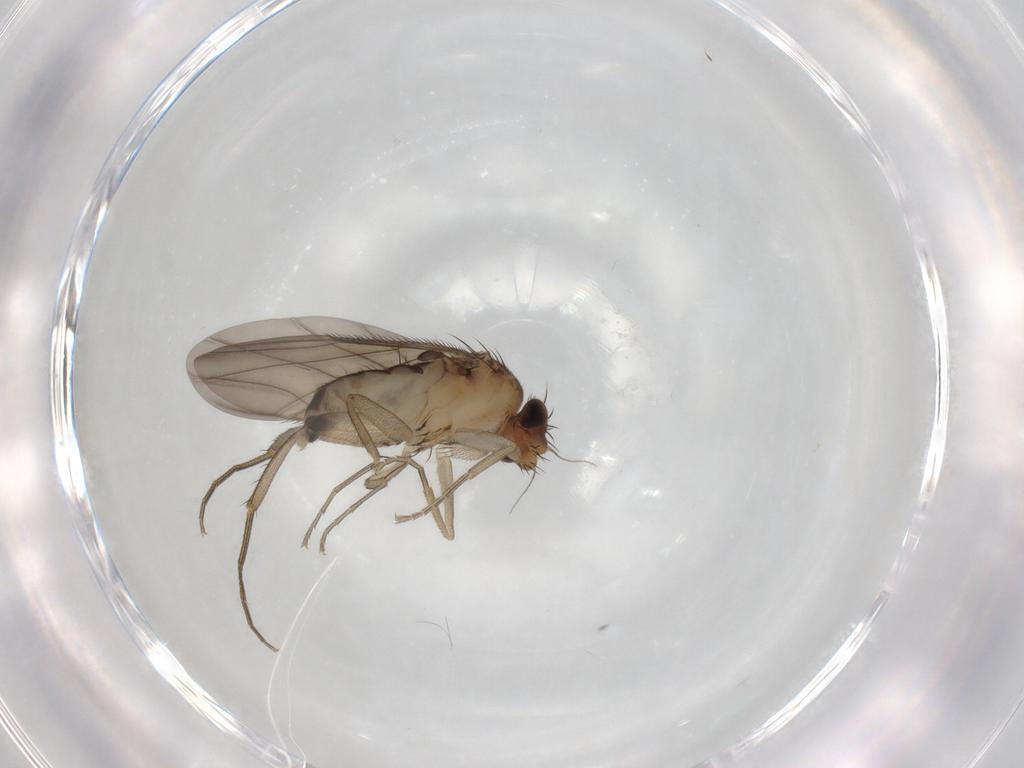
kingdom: Animalia
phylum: Arthropoda
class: Insecta
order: Diptera
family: Phoridae
